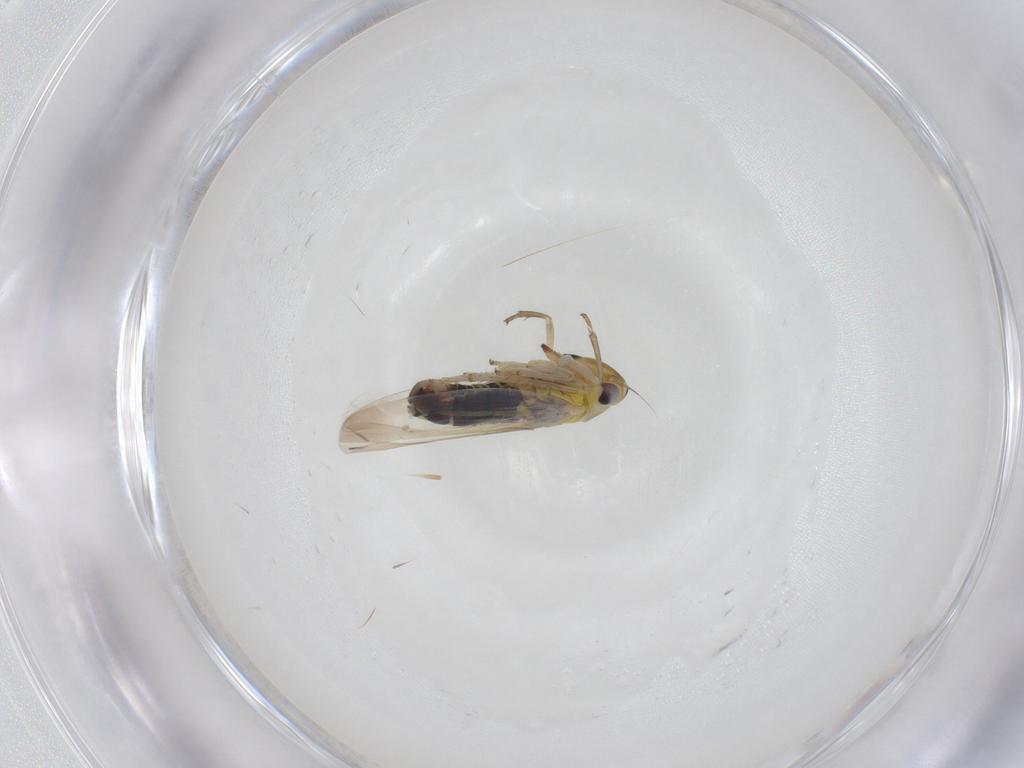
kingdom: Animalia
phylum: Arthropoda
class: Insecta
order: Hemiptera
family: Cicadellidae
